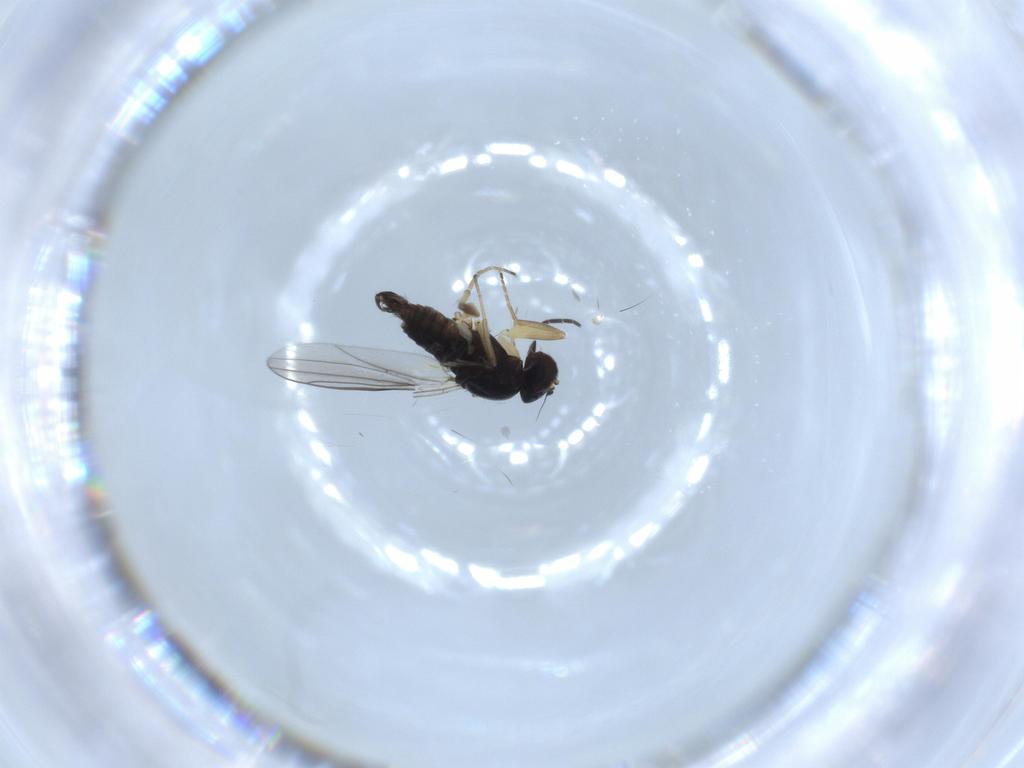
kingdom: Animalia
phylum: Arthropoda
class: Insecta
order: Diptera
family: Hybotidae
